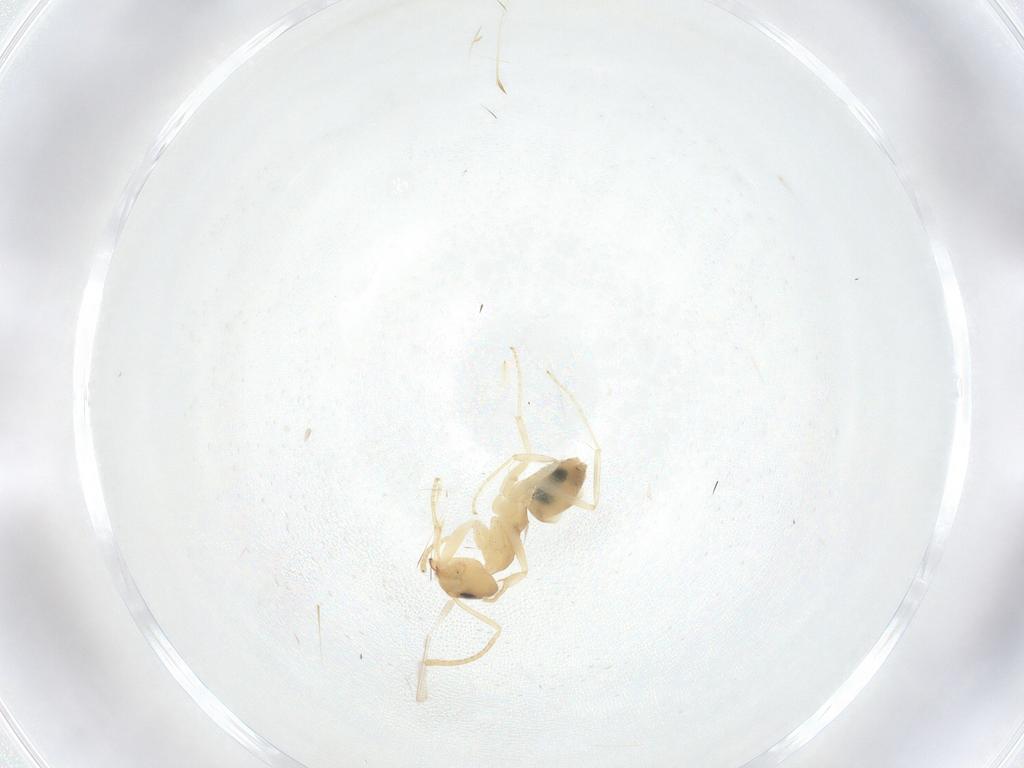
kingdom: Animalia
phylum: Arthropoda
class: Insecta
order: Hymenoptera
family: Formicidae
